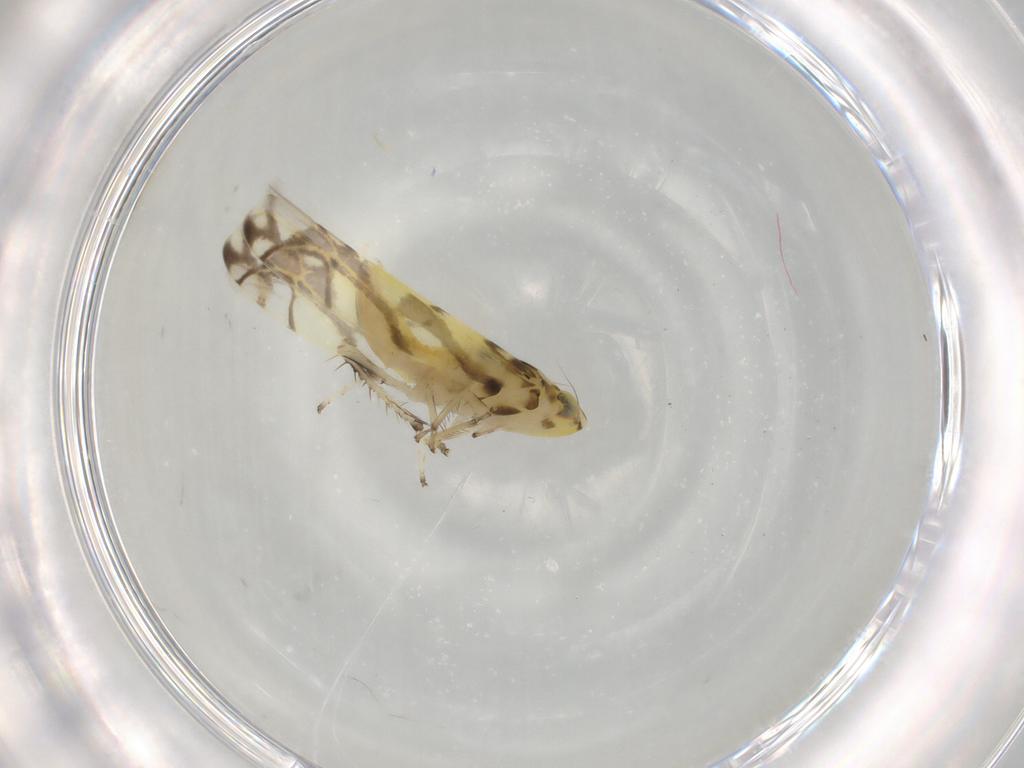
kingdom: Animalia
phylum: Arthropoda
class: Insecta
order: Hemiptera
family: Cicadellidae
